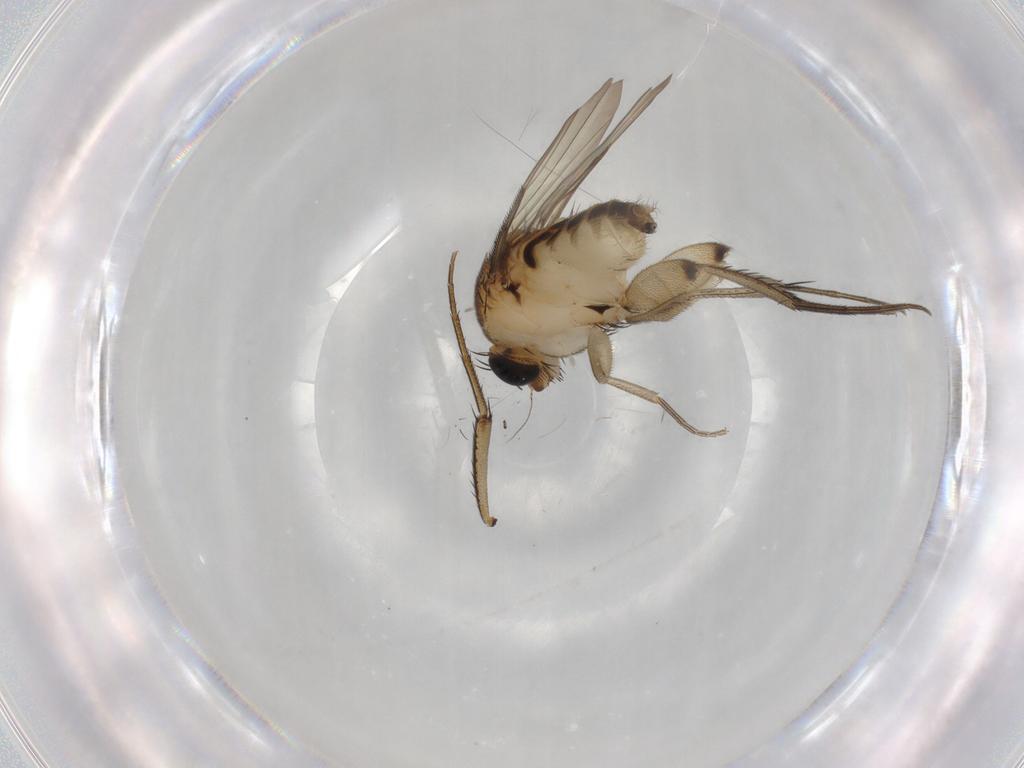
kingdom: Animalia
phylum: Arthropoda
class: Insecta
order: Diptera
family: Phoridae
